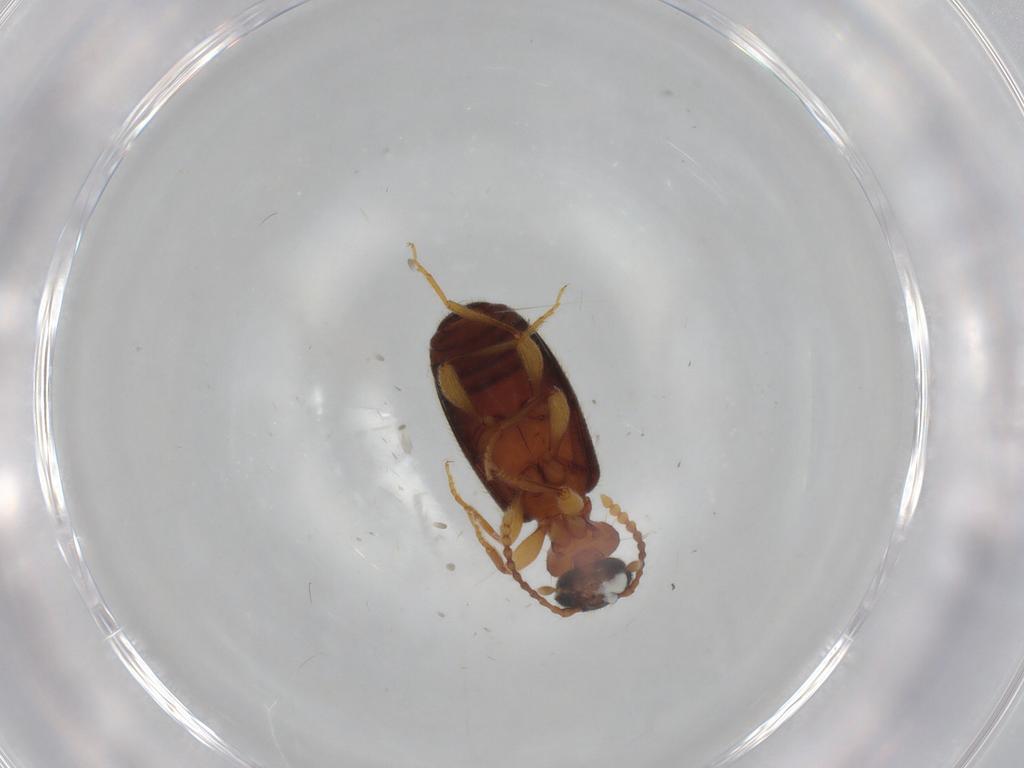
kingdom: Animalia
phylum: Arthropoda
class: Insecta
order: Coleoptera
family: Anthicidae
